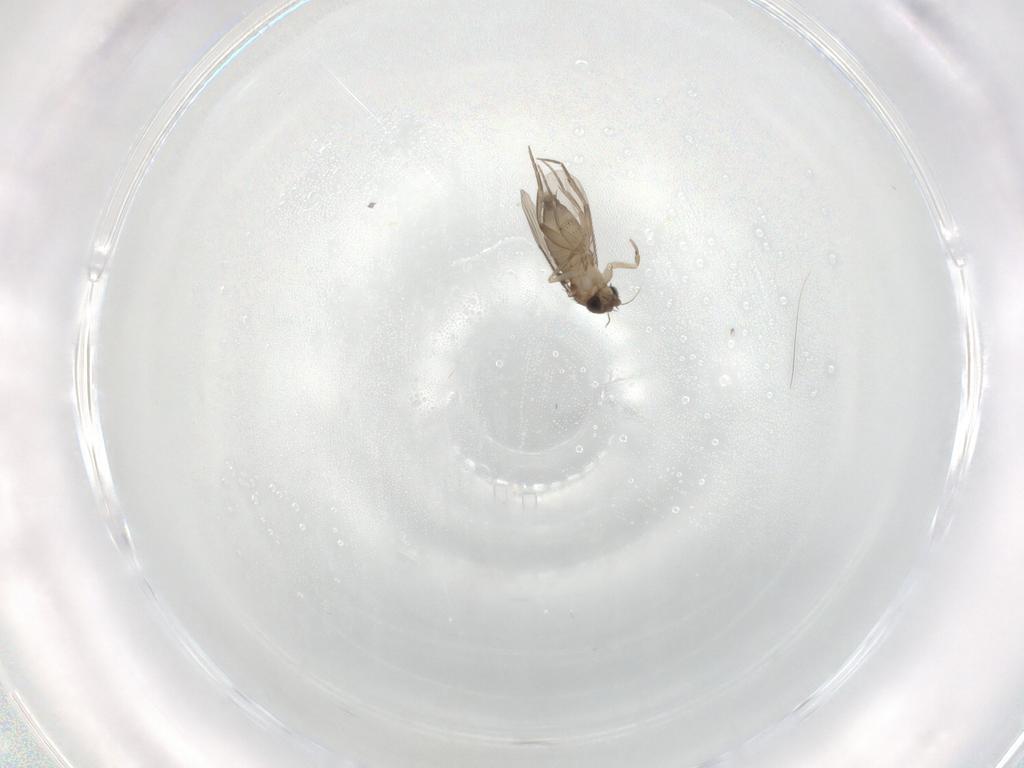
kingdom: Animalia
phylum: Arthropoda
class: Insecta
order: Diptera
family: Phoridae
